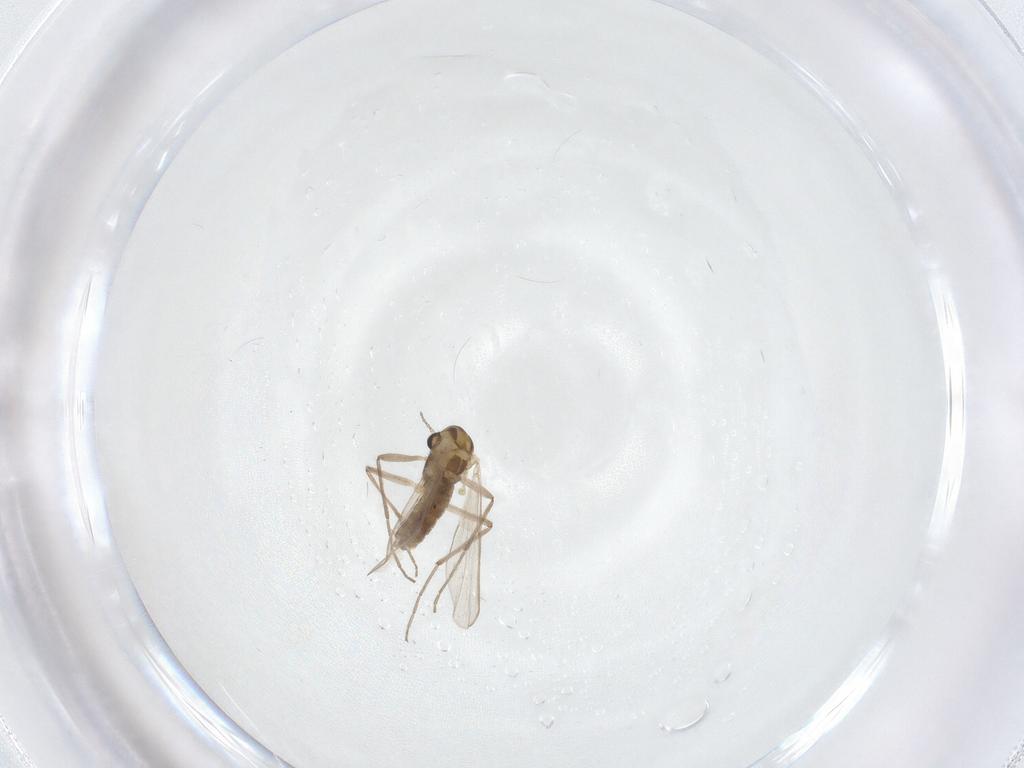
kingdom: Animalia
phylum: Arthropoda
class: Insecta
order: Diptera
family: Chironomidae
